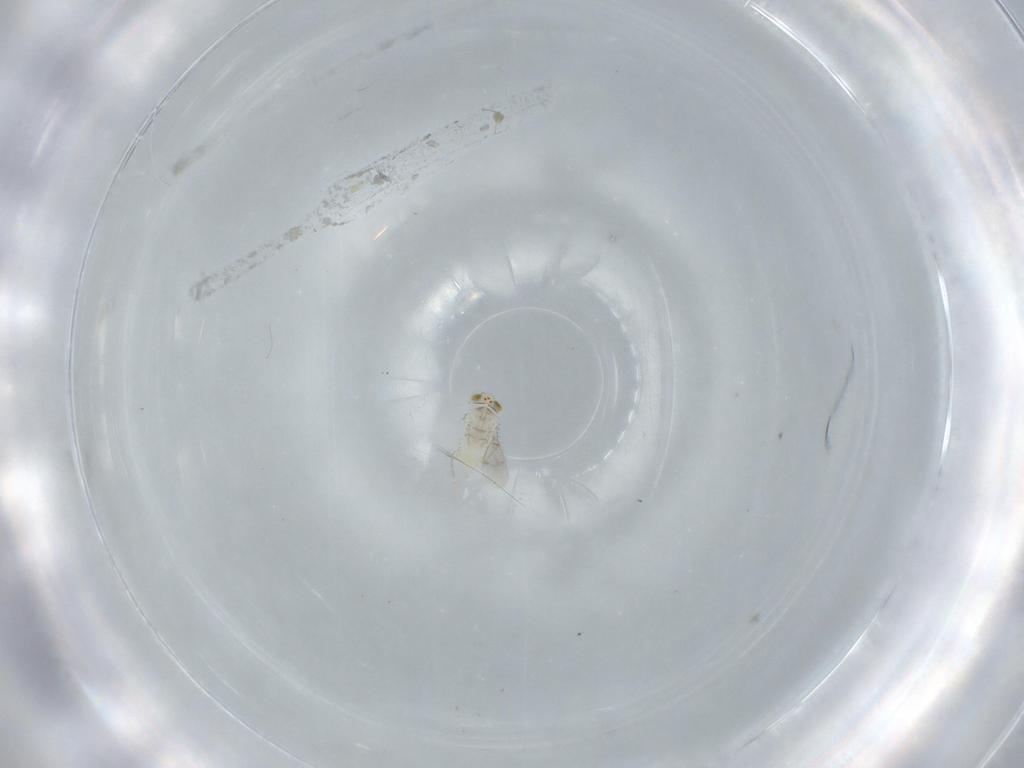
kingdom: Animalia
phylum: Arthropoda
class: Insecta
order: Hymenoptera
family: Aphelinidae
